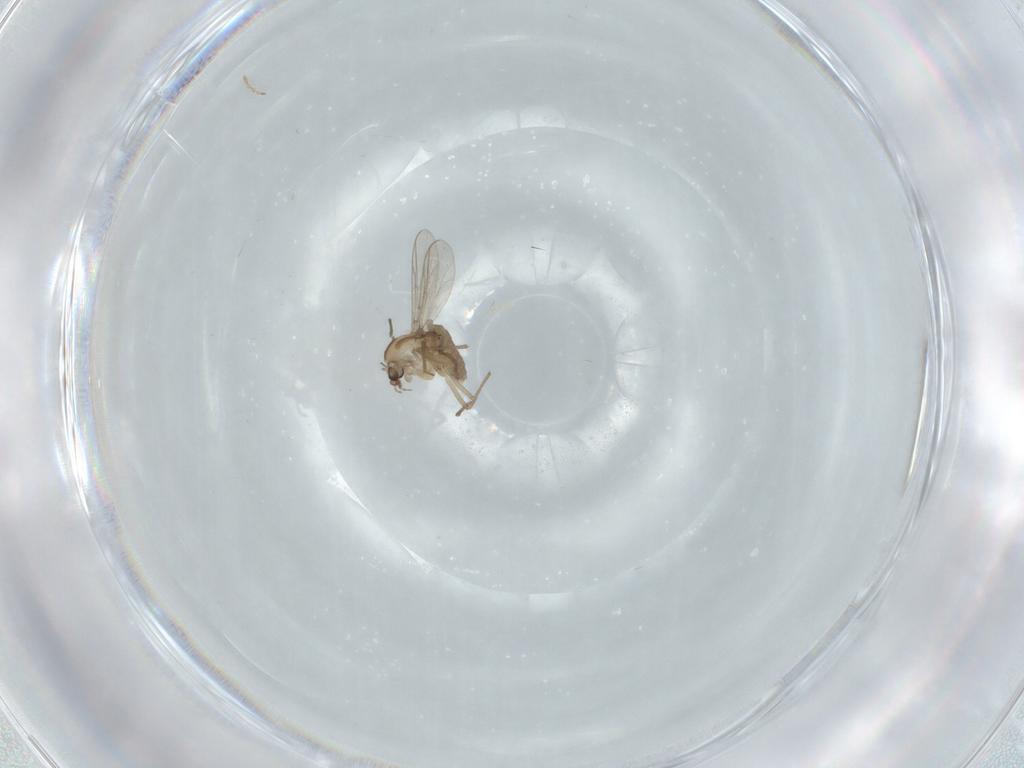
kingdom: Animalia
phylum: Arthropoda
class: Insecta
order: Diptera
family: Chironomidae
